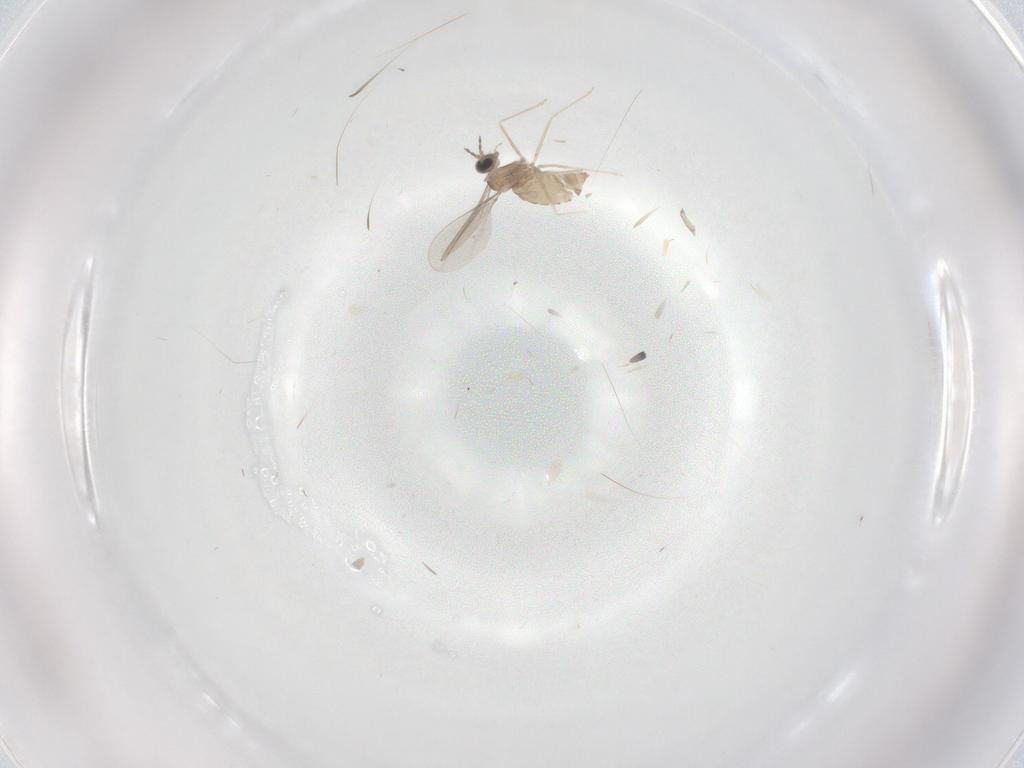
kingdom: Animalia
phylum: Arthropoda
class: Insecta
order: Diptera
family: Cecidomyiidae
